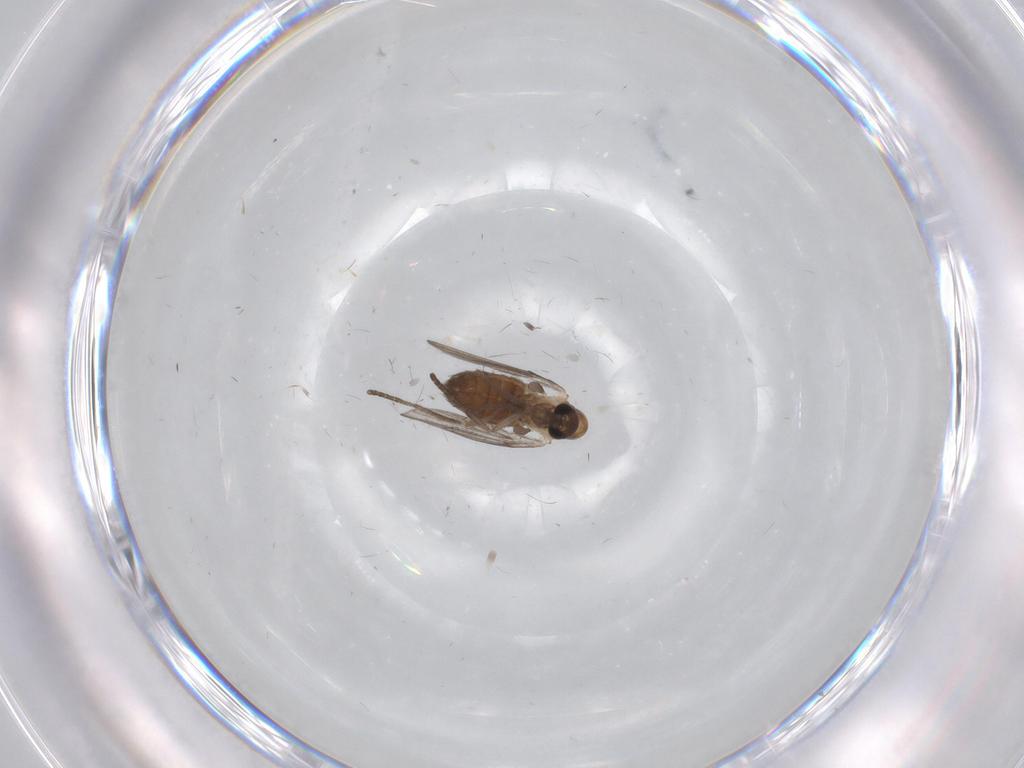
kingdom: Animalia
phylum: Arthropoda
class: Insecta
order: Diptera
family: Psychodidae
